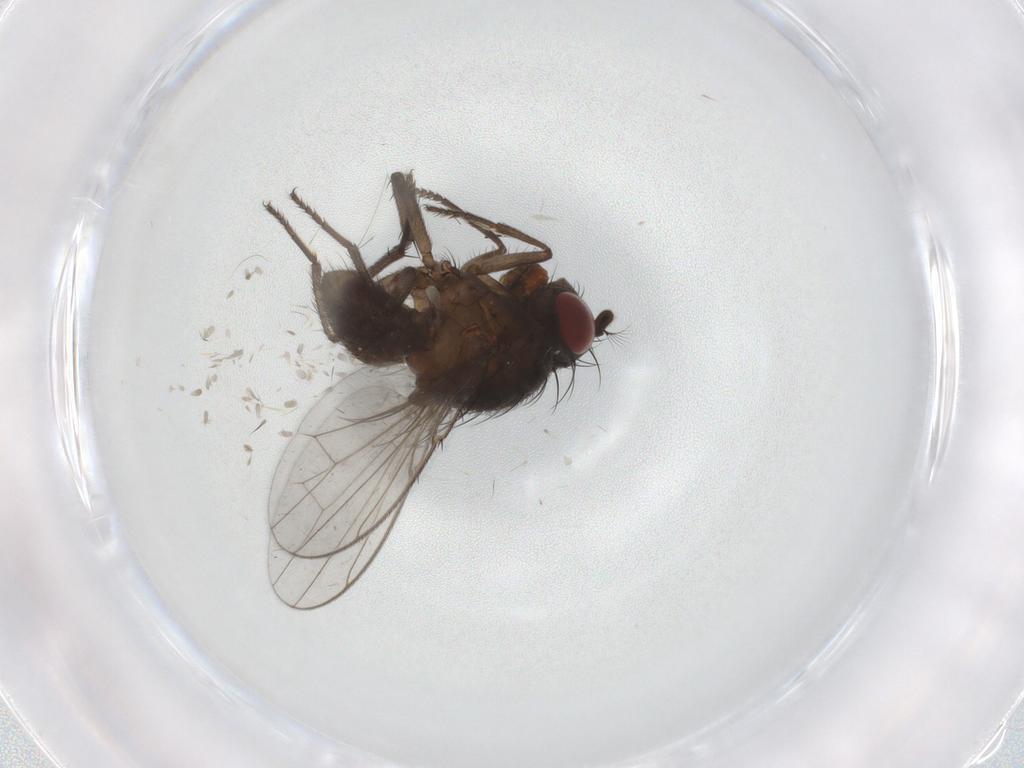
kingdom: Animalia
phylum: Arthropoda
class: Insecta
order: Diptera
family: Ephydridae
